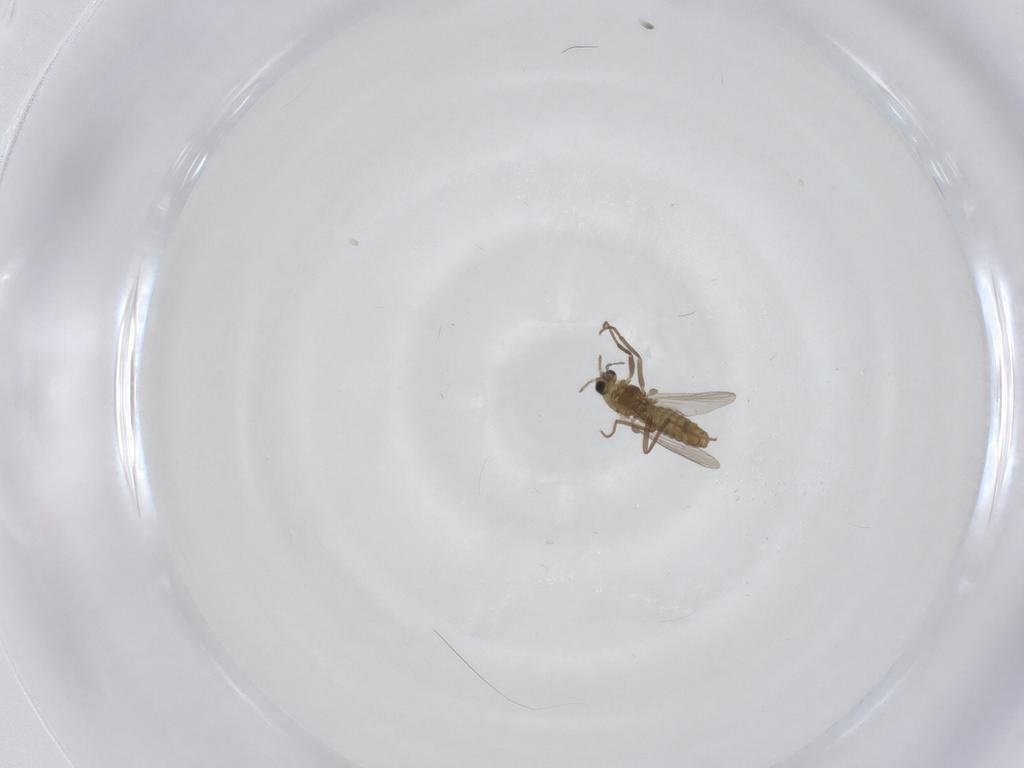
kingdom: Animalia
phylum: Arthropoda
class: Insecta
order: Diptera
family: Chironomidae
